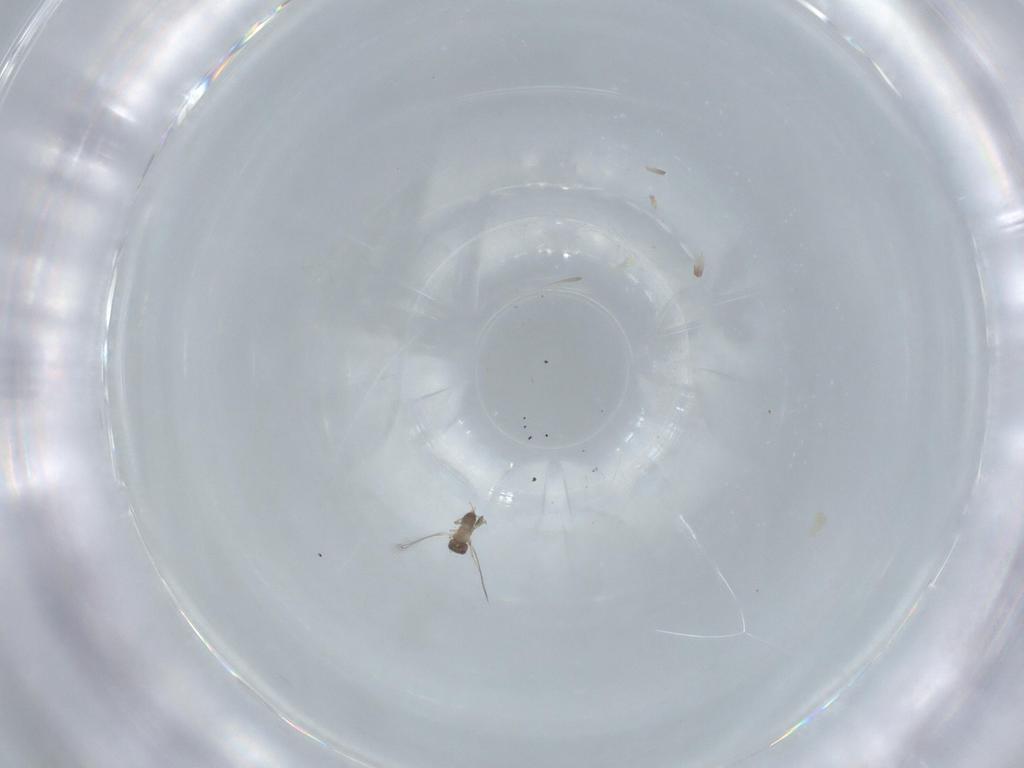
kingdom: Animalia
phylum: Arthropoda
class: Insecta
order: Hymenoptera
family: Mymaridae
